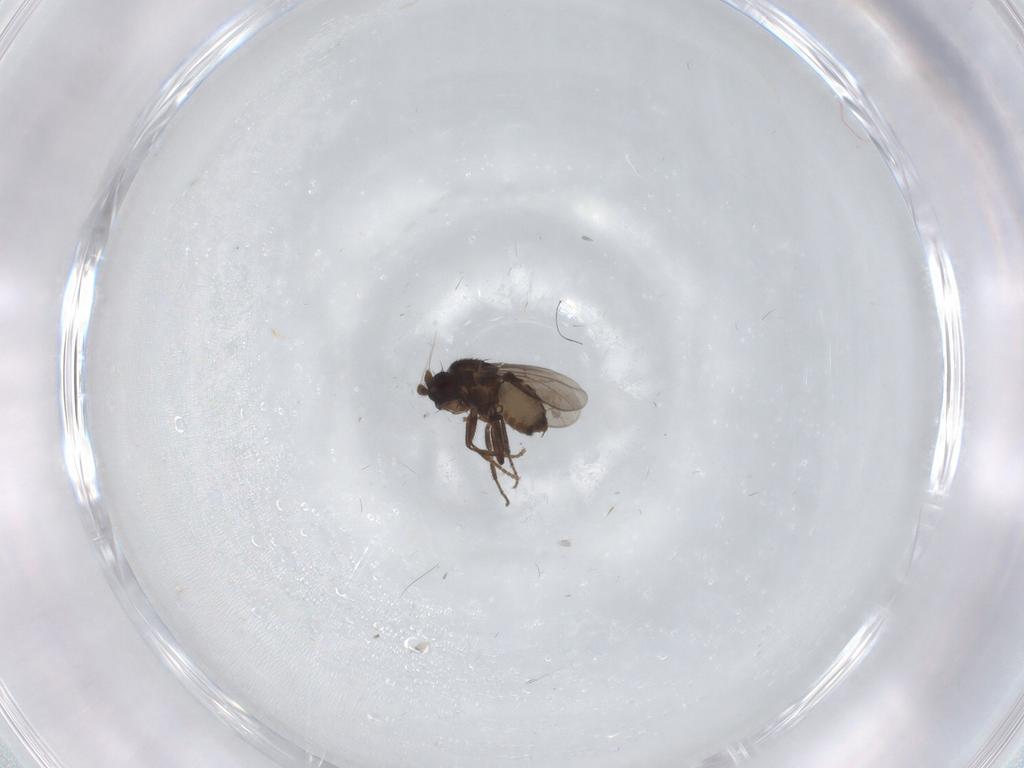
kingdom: Animalia
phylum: Arthropoda
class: Insecta
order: Diptera
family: Sphaeroceridae
